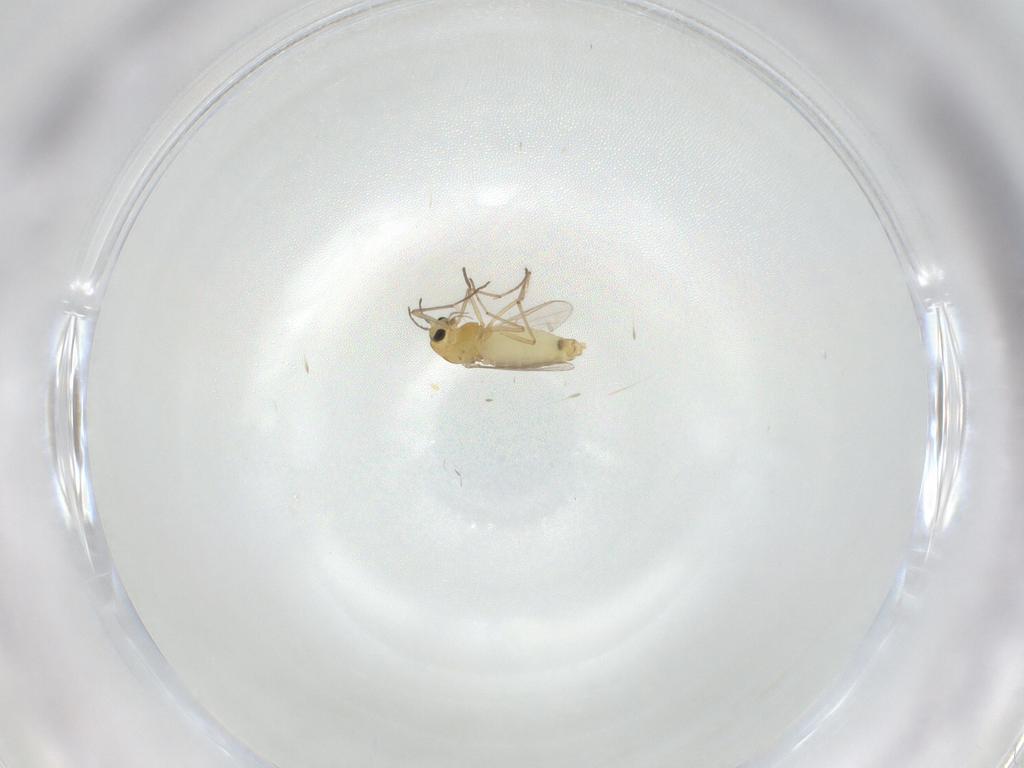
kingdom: Animalia
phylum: Arthropoda
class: Insecta
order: Diptera
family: Chironomidae
